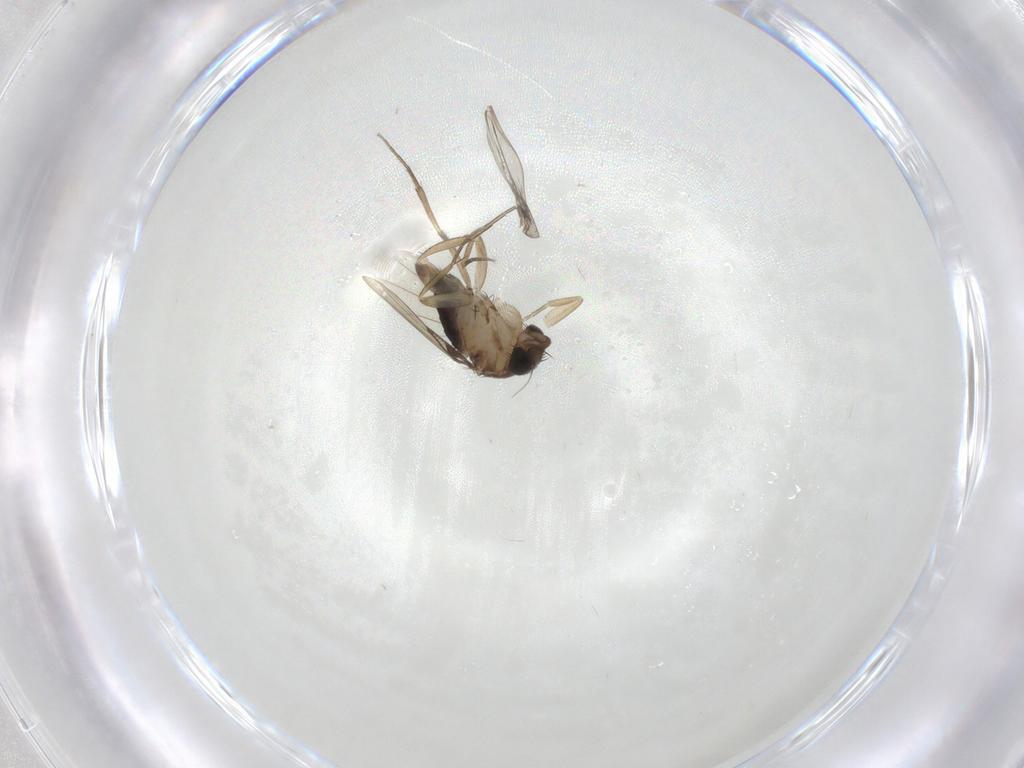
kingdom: Animalia
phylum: Arthropoda
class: Insecta
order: Diptera
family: Phoridae
